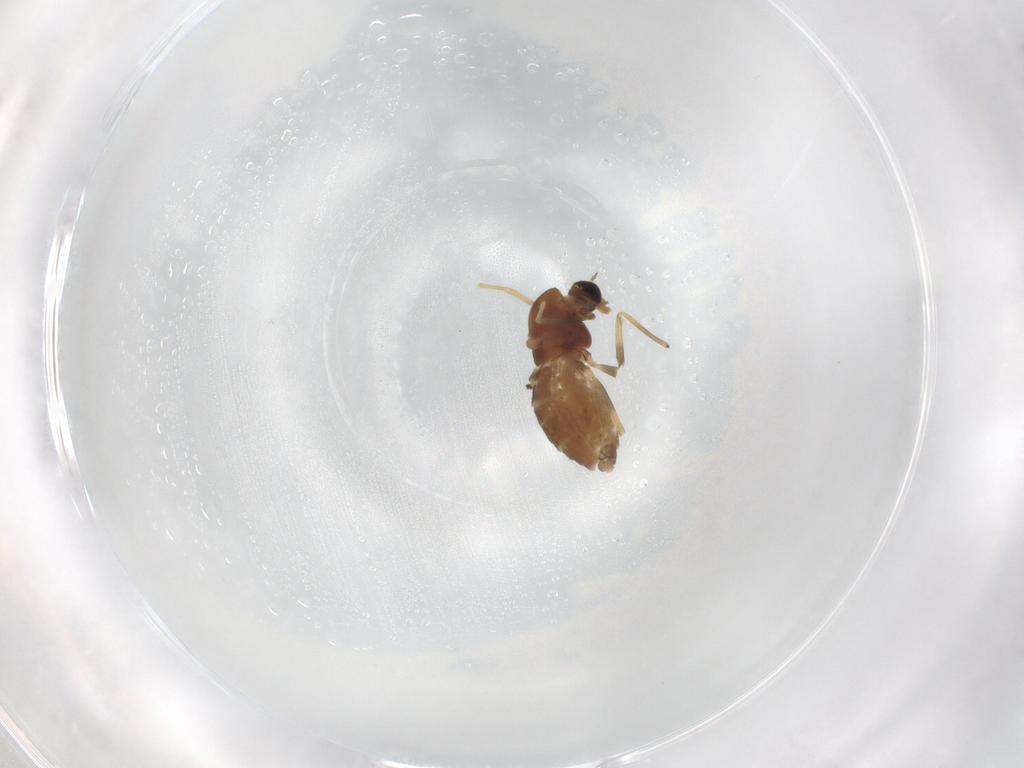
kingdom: Animalia
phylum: Arthropoda
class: Insecta
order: Diptera
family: Chironomidae
